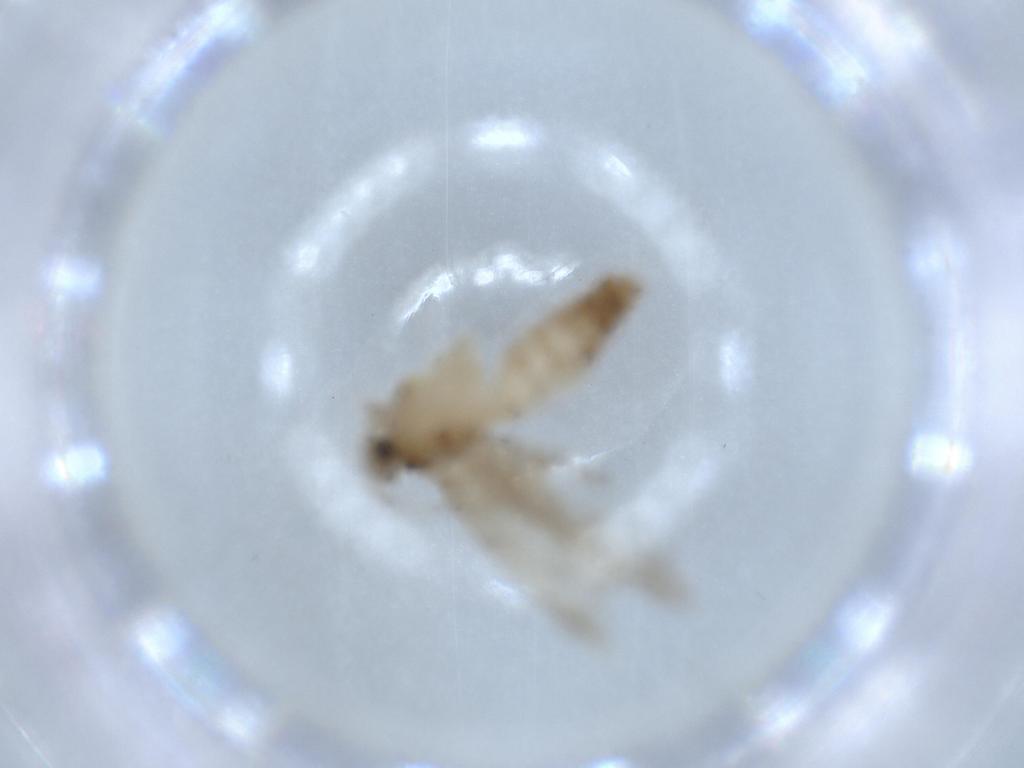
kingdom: Animalia
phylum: Arthropoda
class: Insecta
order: Lepidoptera
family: Tineidae
